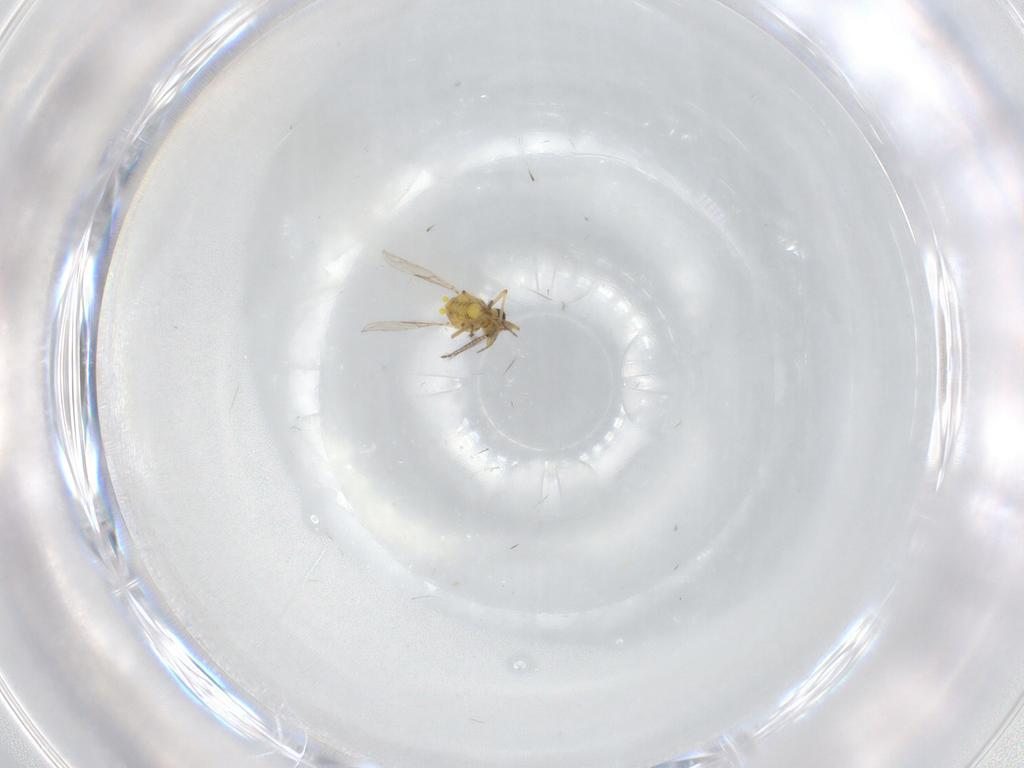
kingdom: Animalia
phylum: Arthropoda
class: Insecta
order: Diptera
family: Ceratopogonidae
